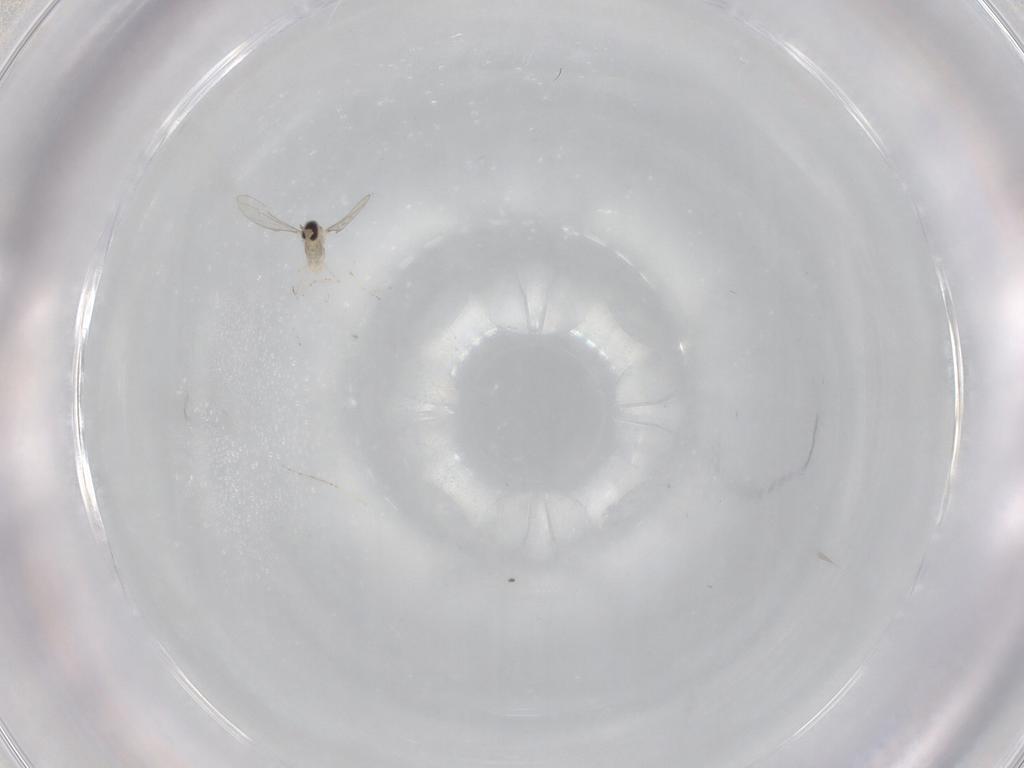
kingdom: Animalia
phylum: Arthropoda
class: Insecta
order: Diptera
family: Cecidomyiidae
